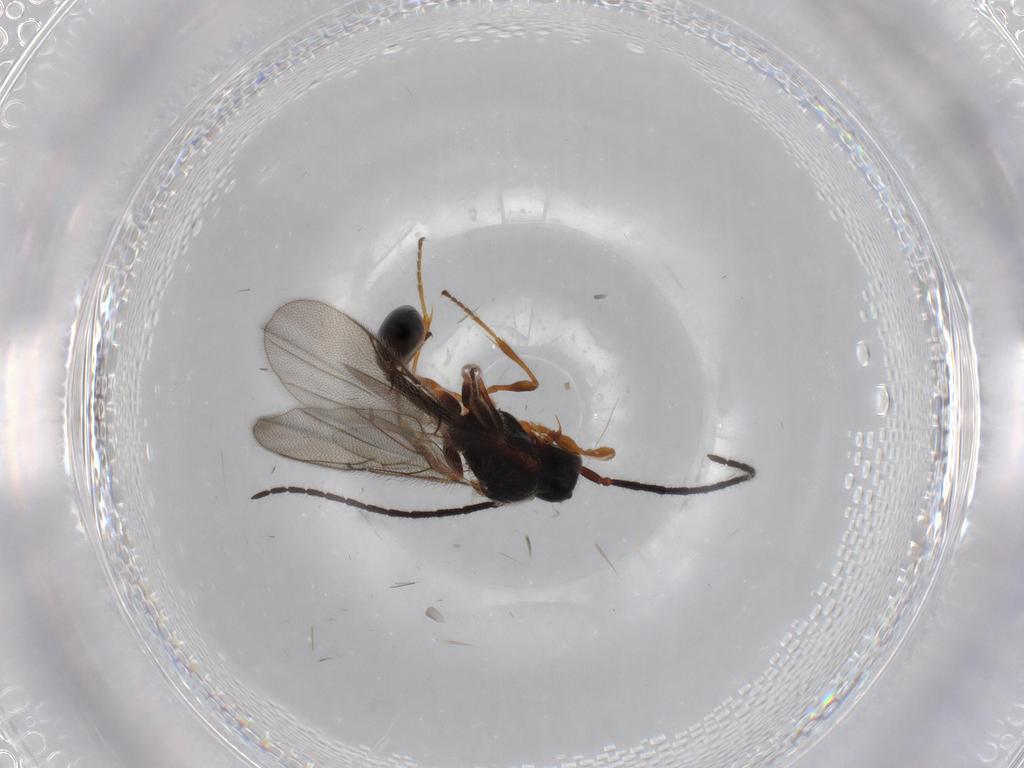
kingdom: Animalia
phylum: Arthropoda
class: Insecta
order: Hymenoptera
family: Diapriidae
